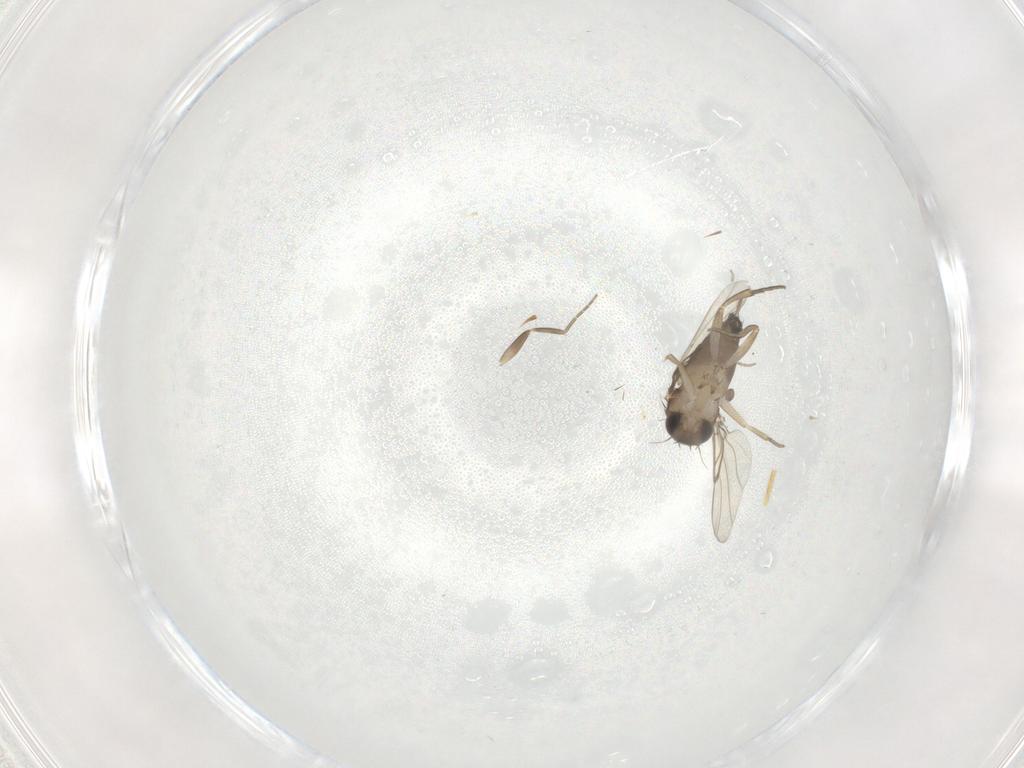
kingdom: Animalia
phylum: Arthropoda
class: Insecta
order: Diptera
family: Phoridae
